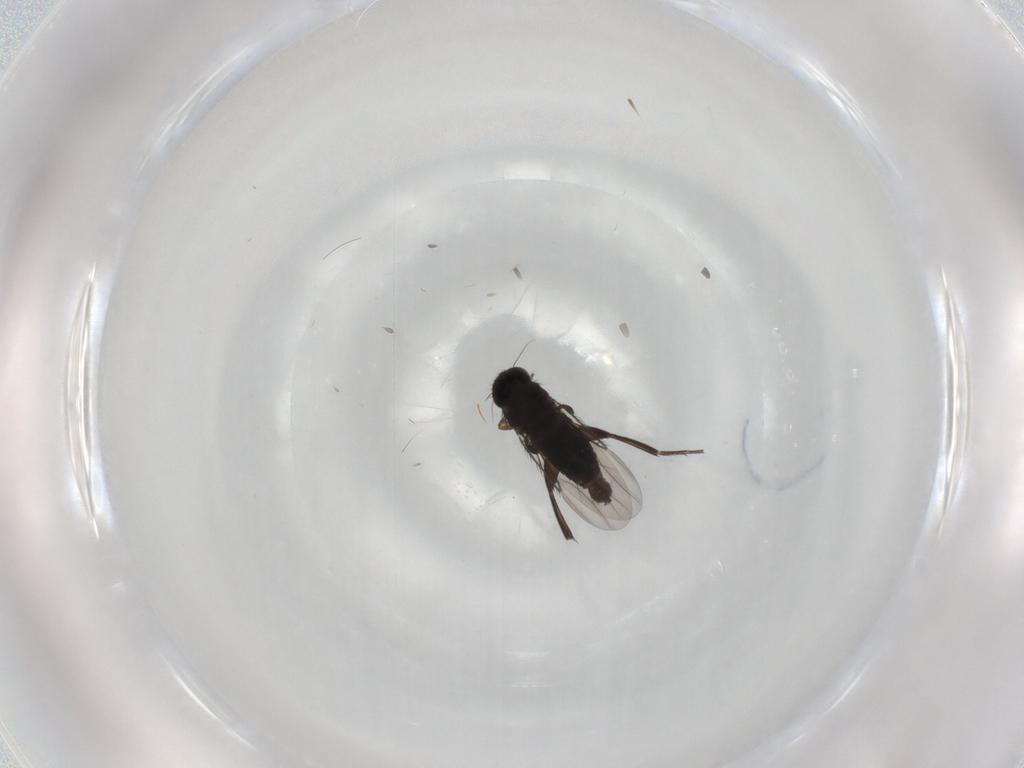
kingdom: Animalia
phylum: Arthropoda
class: Insecta
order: Diptera
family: Phoridae
